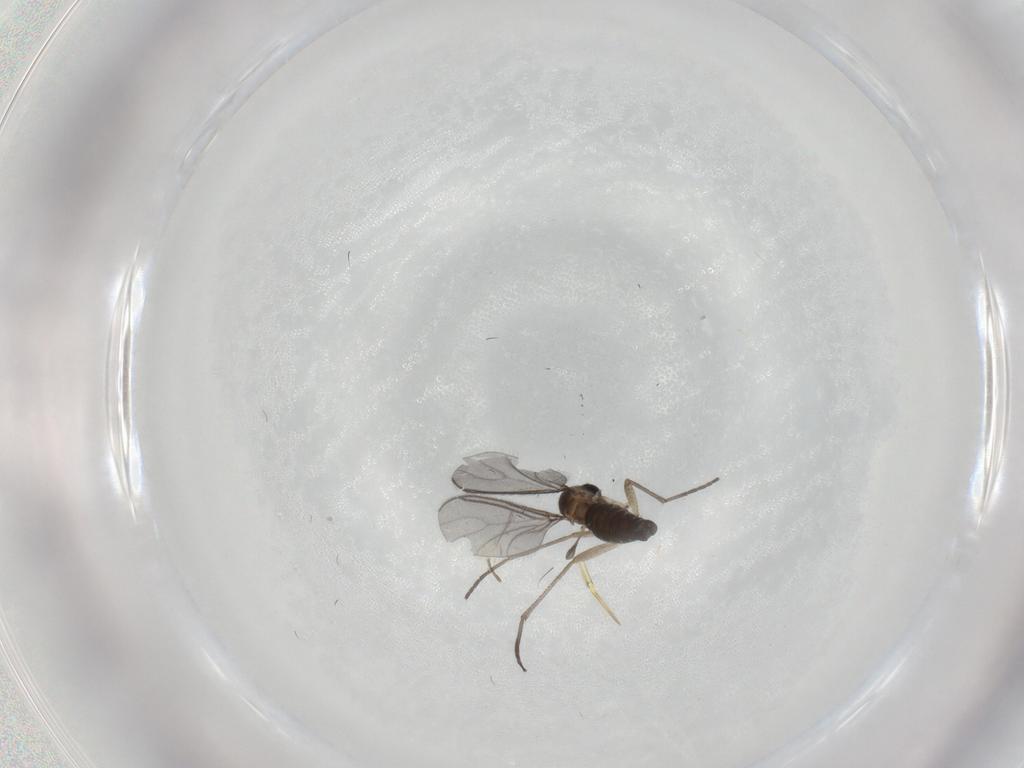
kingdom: Animalia
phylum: Arthropoda
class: Insecta
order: Diptera
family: Sciaridae
